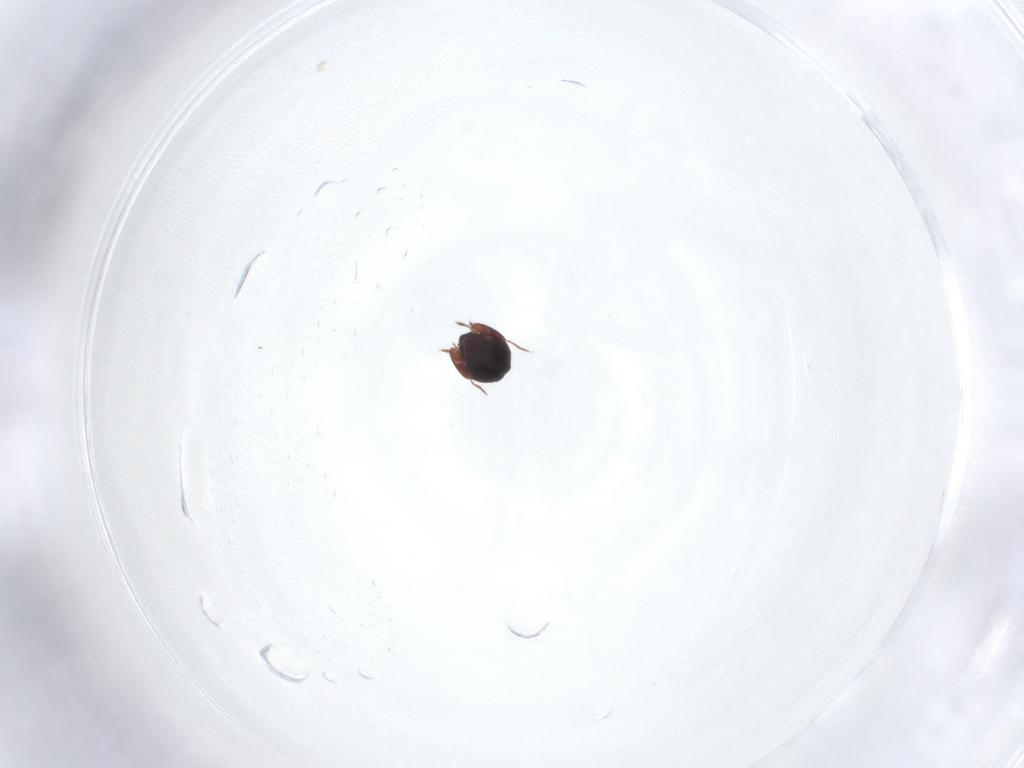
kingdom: Animalia
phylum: Arthropoda
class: Arachnida
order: Sarcoptiformes
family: Galumnidae
